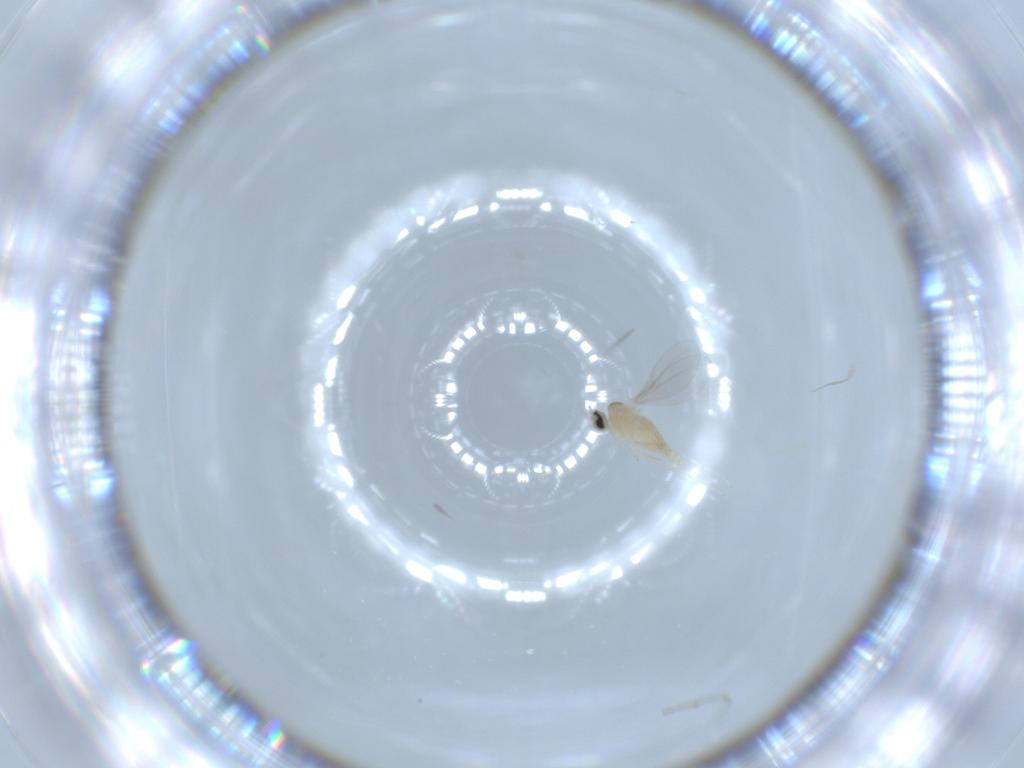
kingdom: Animalia
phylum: Arthropoda
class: Insecta
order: Diptera
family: Cecidomyiidae
